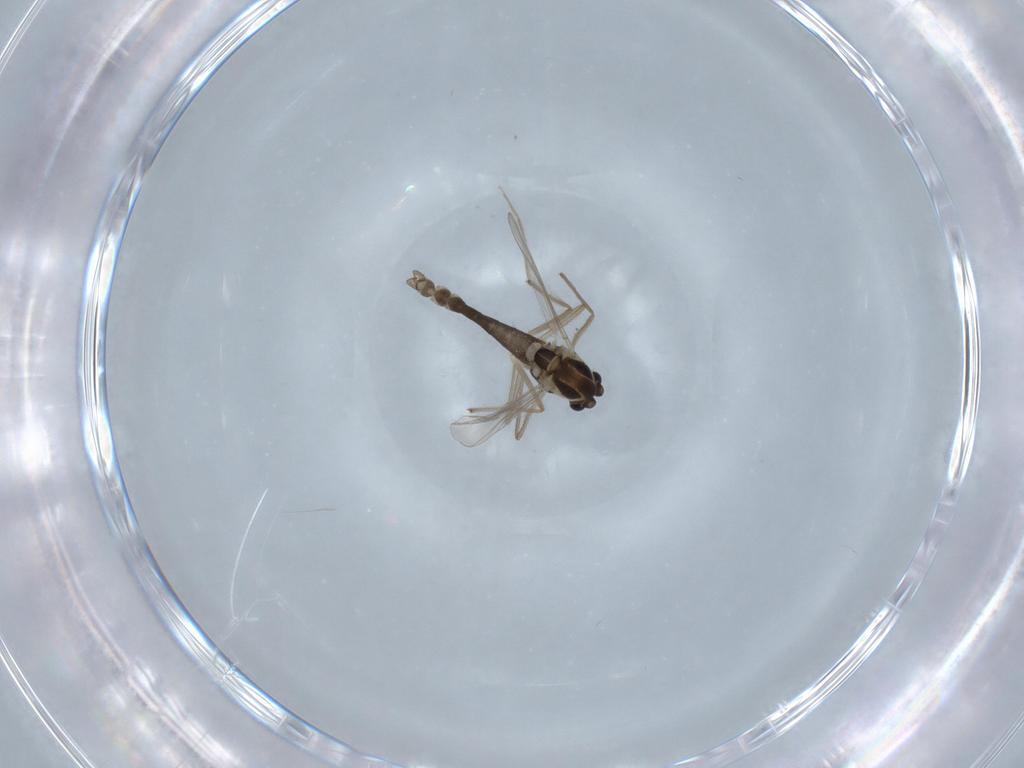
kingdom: Animalia
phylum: Arthropoda
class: Insecta
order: Diptera
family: Chironomidae
